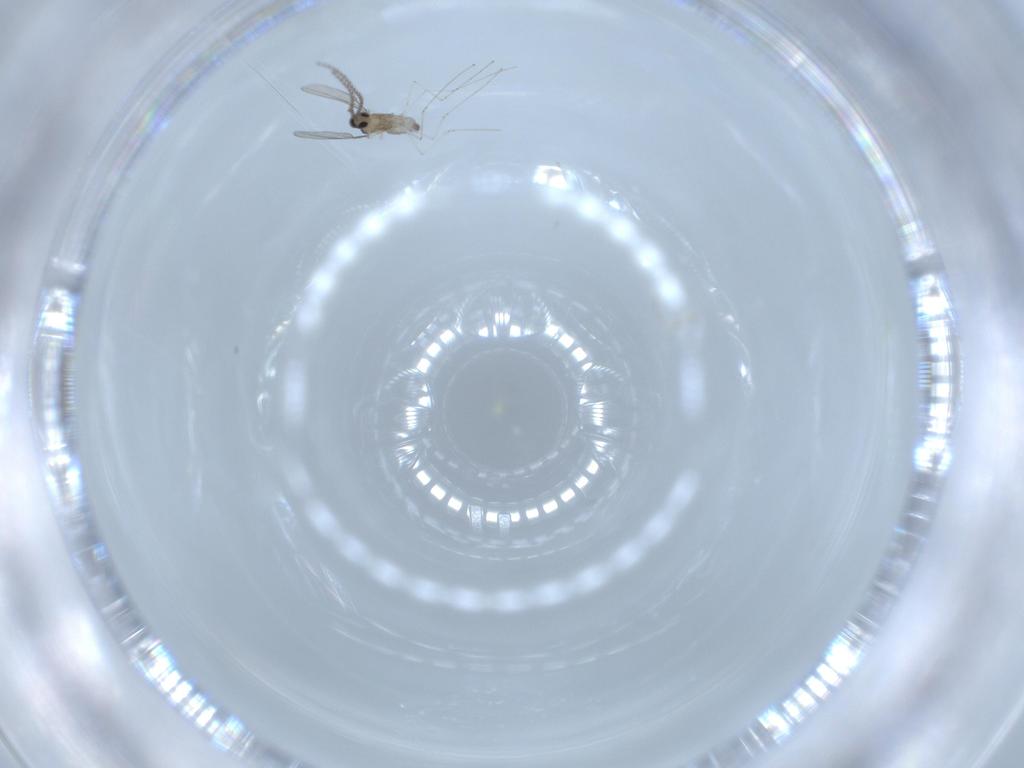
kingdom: Animalia
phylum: Arthropoda
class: Insecta
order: Diptera
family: Cecidomyiidae
